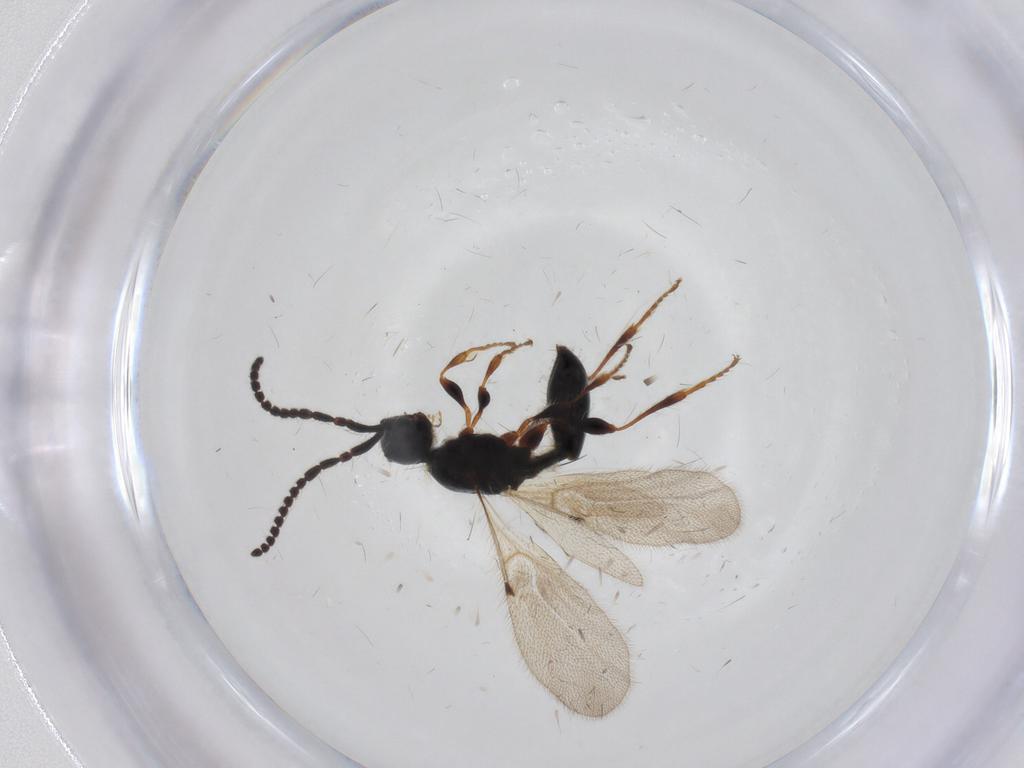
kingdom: Animalia
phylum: Arthropoda
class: Insecta
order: Hymenoptera
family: Diapriidae
